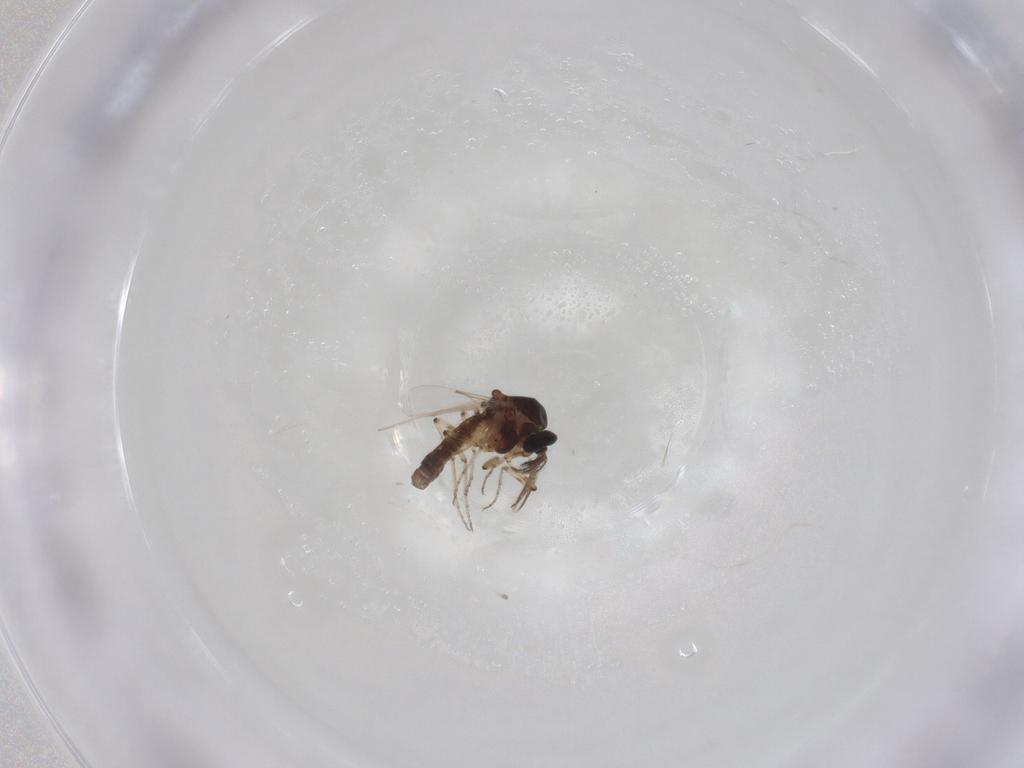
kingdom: Animalia
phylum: Arthropoda
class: Insecta
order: Diptera
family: Ceratopogonidae
